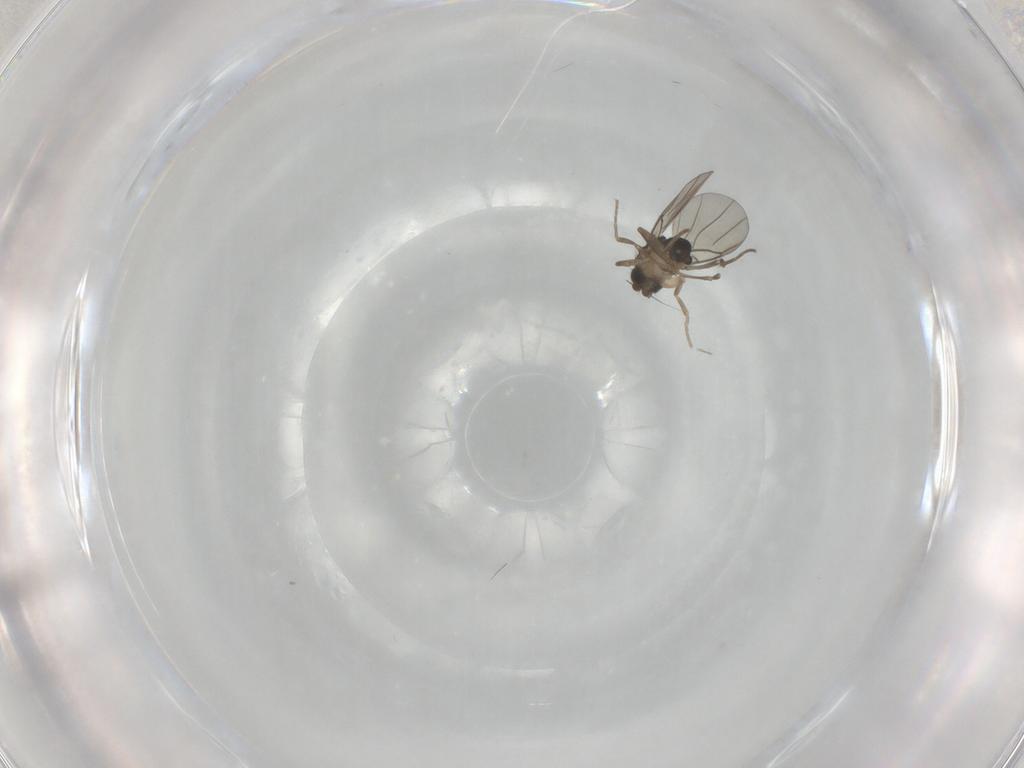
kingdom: Animalia
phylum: Arthropoda
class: Insecta
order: Diptera
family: Phoridae
